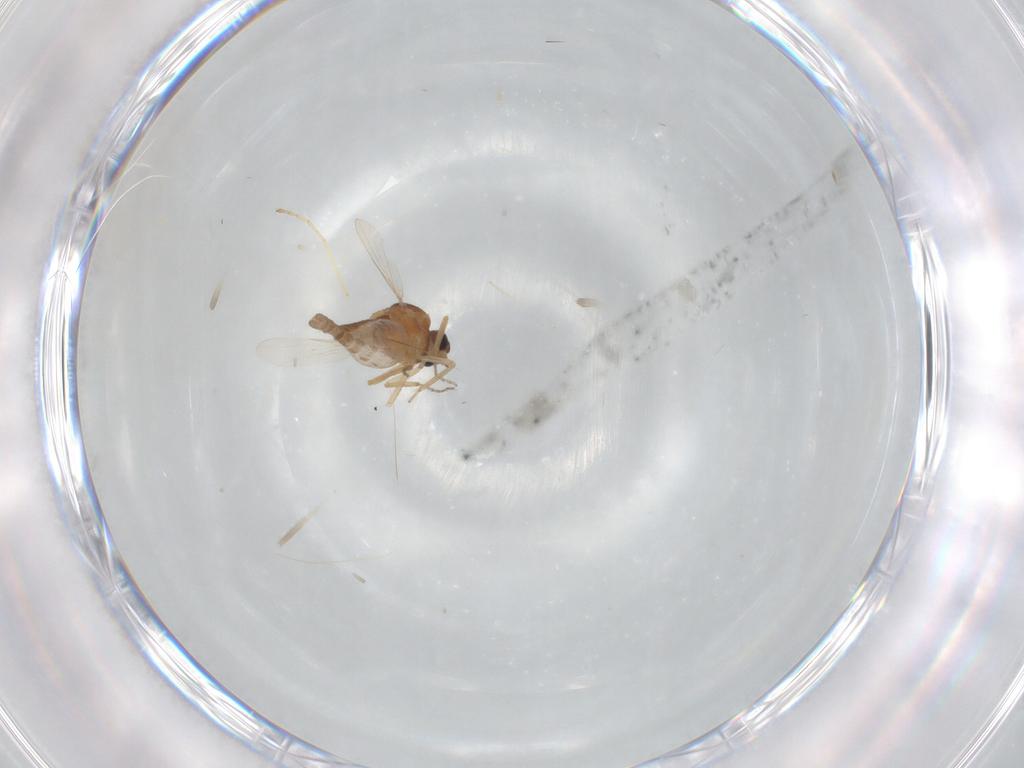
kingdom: Animalia
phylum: Arthropoda
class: Insecta
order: Diptera
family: Ceratopogonidae
